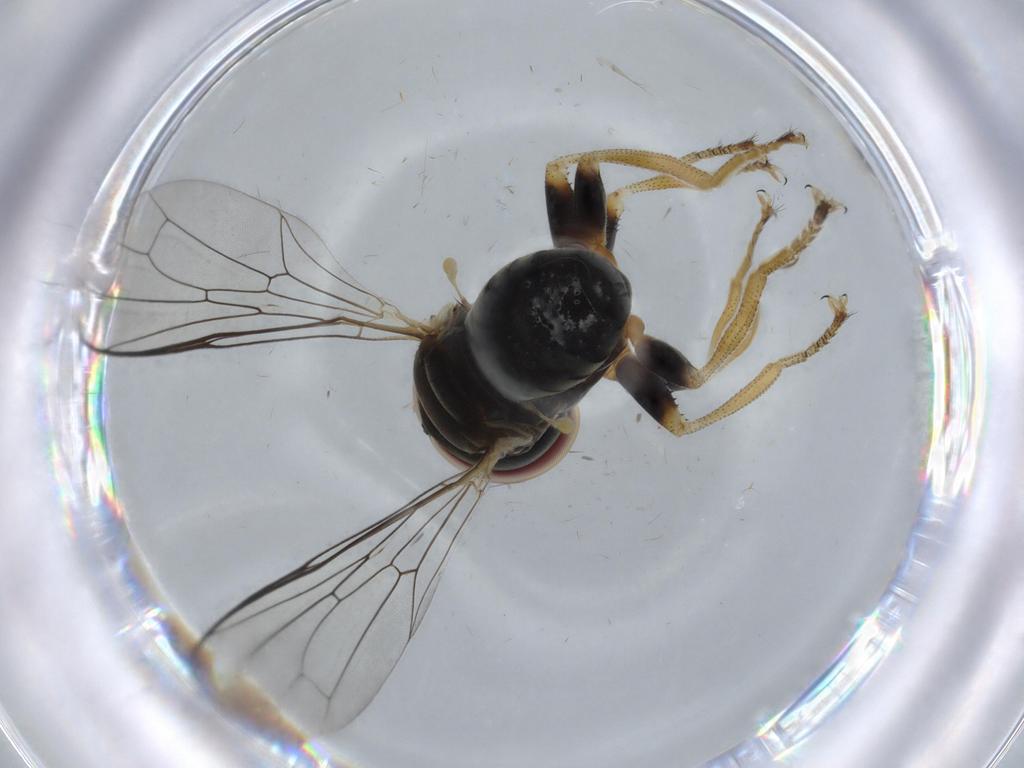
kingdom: Animalia
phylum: Arthropoda
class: Insecta
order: Diptera
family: Pipunculidae
